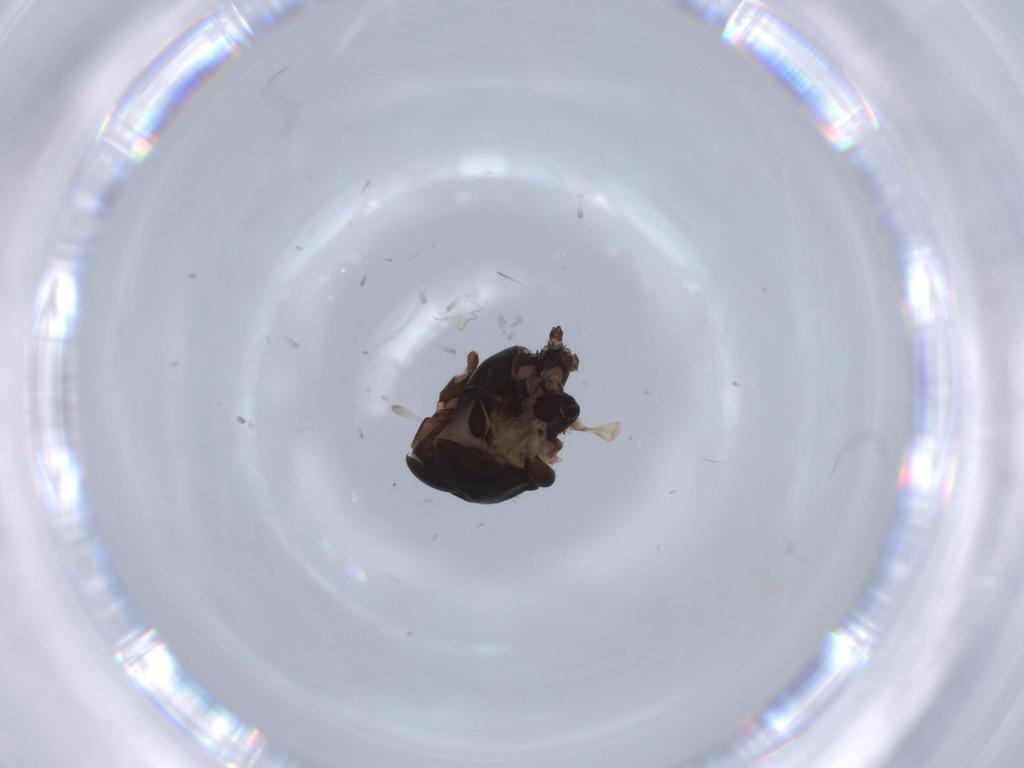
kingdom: Animalia
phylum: Arthropoda
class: Insecta
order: Diptera
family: Chironomidae
